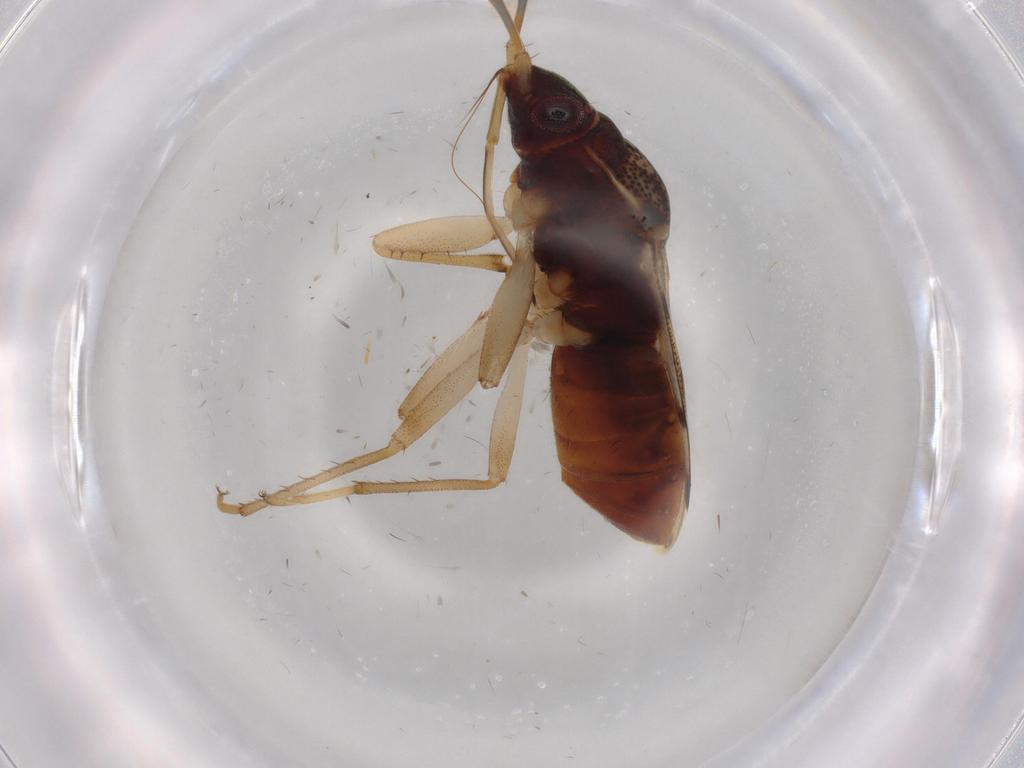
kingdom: Animalia
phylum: Arthropoda
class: Insecta
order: Hemiptera
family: Rhyparochromidae
